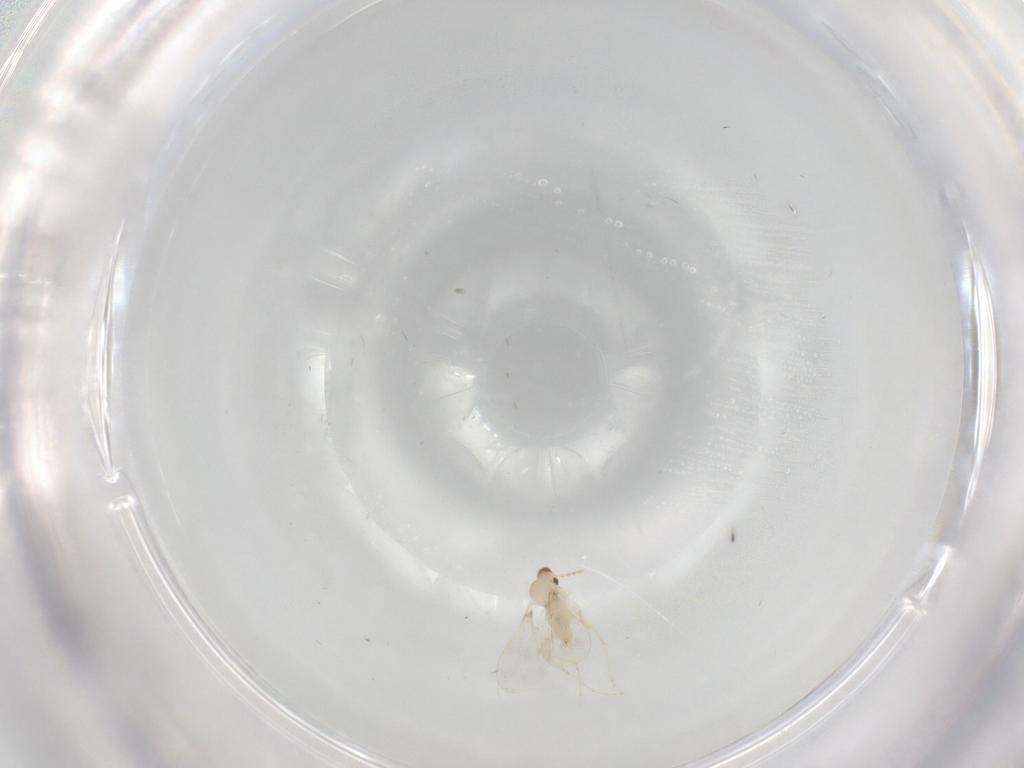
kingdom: Animalia
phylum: Arthropoda
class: Insecta
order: Diptera
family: Cecidomyiidae
